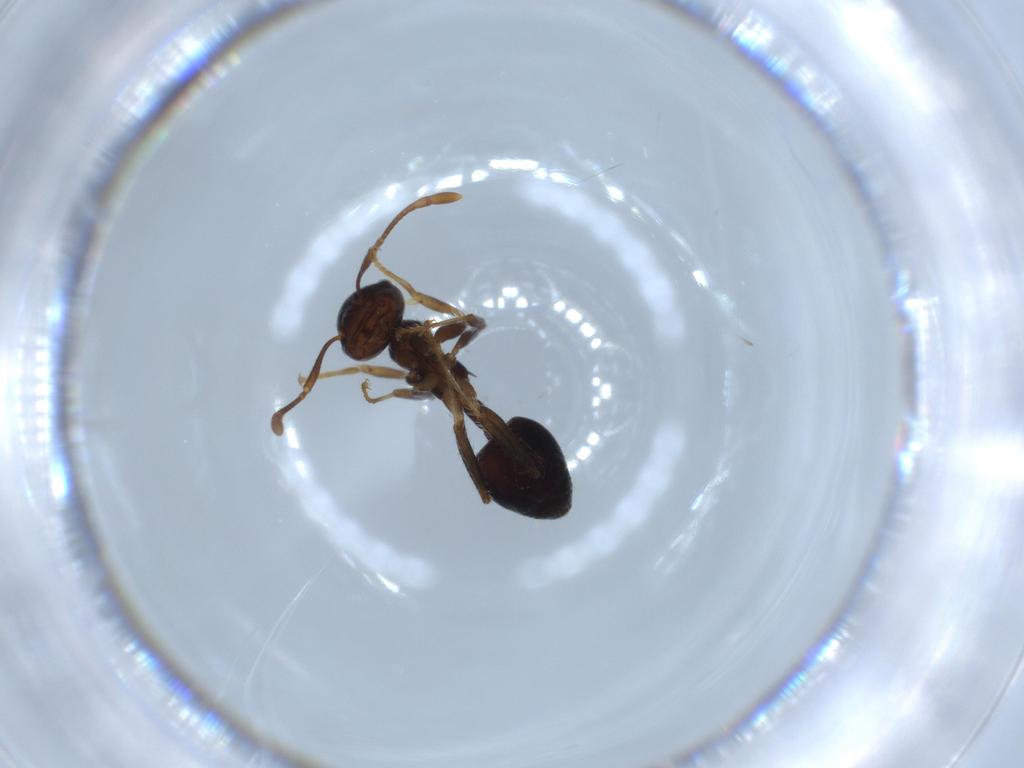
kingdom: Animalia
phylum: Arthropoda
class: Insecta
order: Hymenoptera
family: Formicidae
